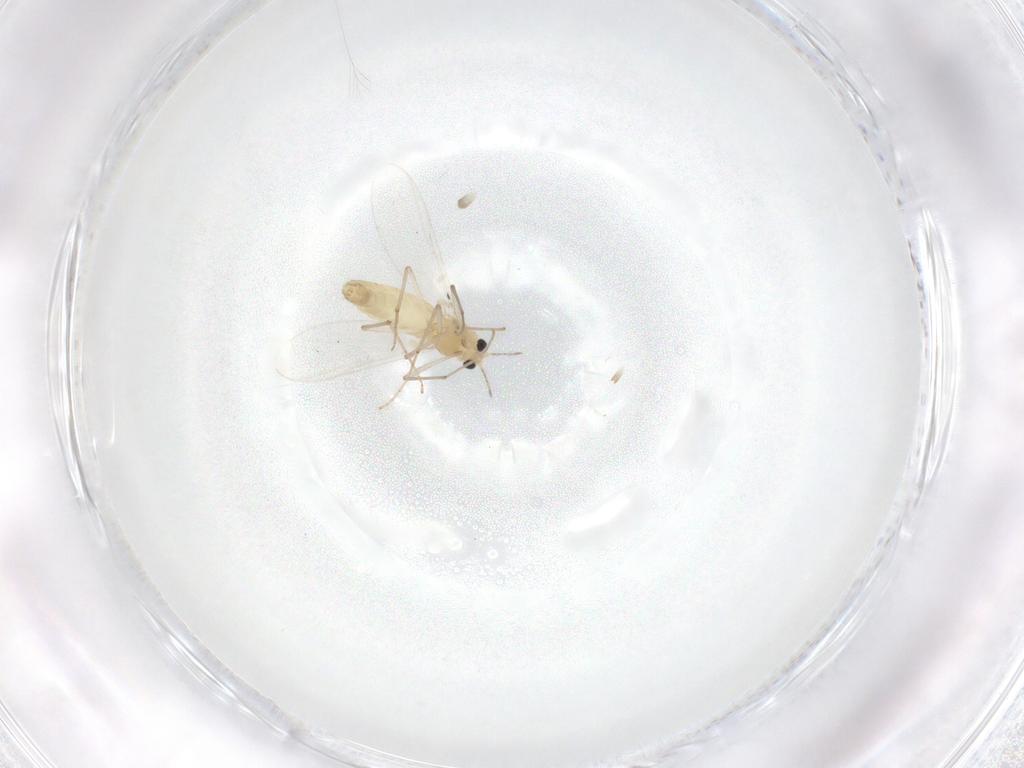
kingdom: Animalia
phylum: Arthropoda
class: Insecta
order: Diptera
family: Chironomidae
